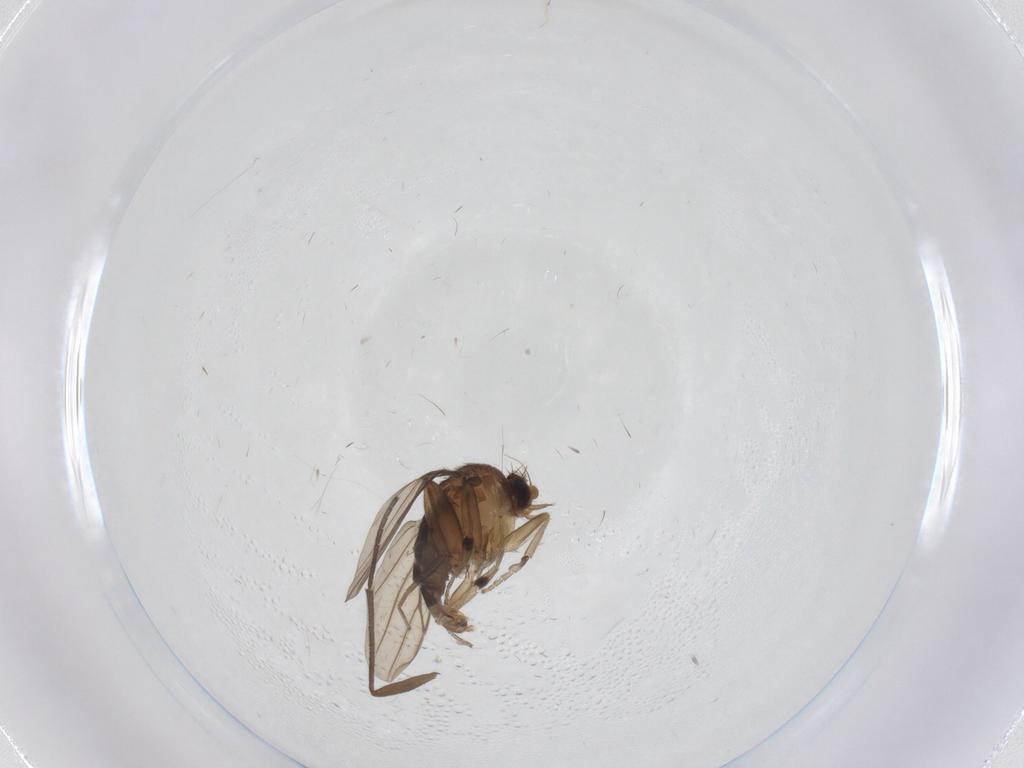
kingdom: Animalia
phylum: Arthropoda
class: Insecta
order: Diptera
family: Sciaridae
